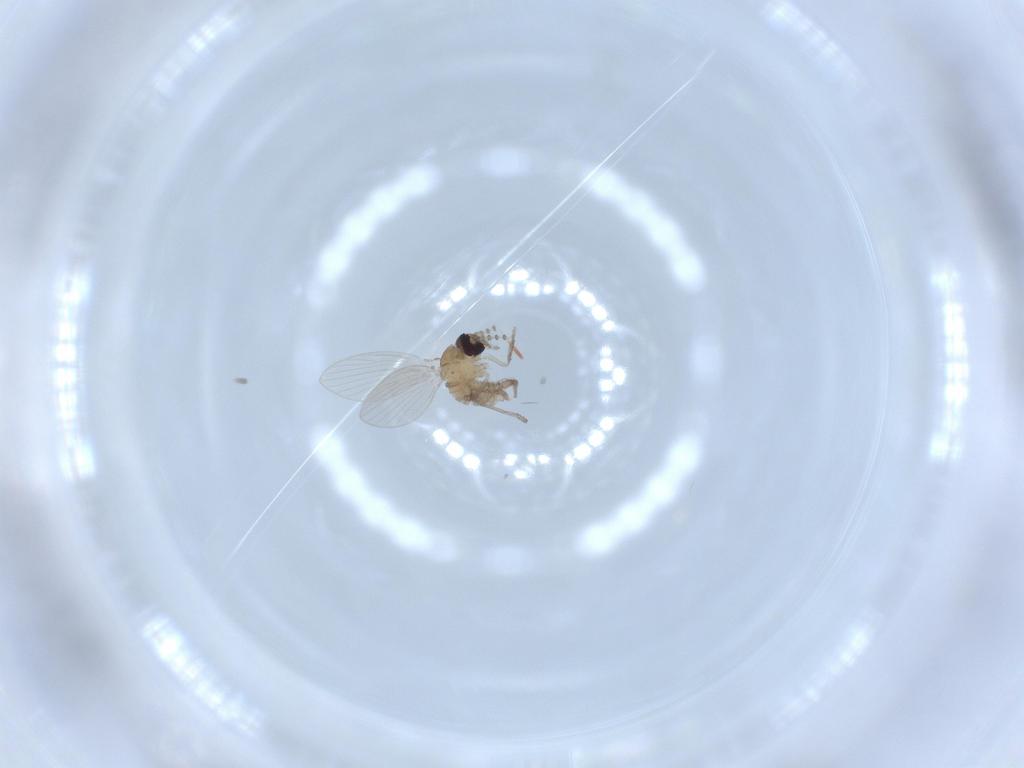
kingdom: Animalia
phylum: Arthropoda
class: Insecta
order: Diptera
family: Psychodidae
